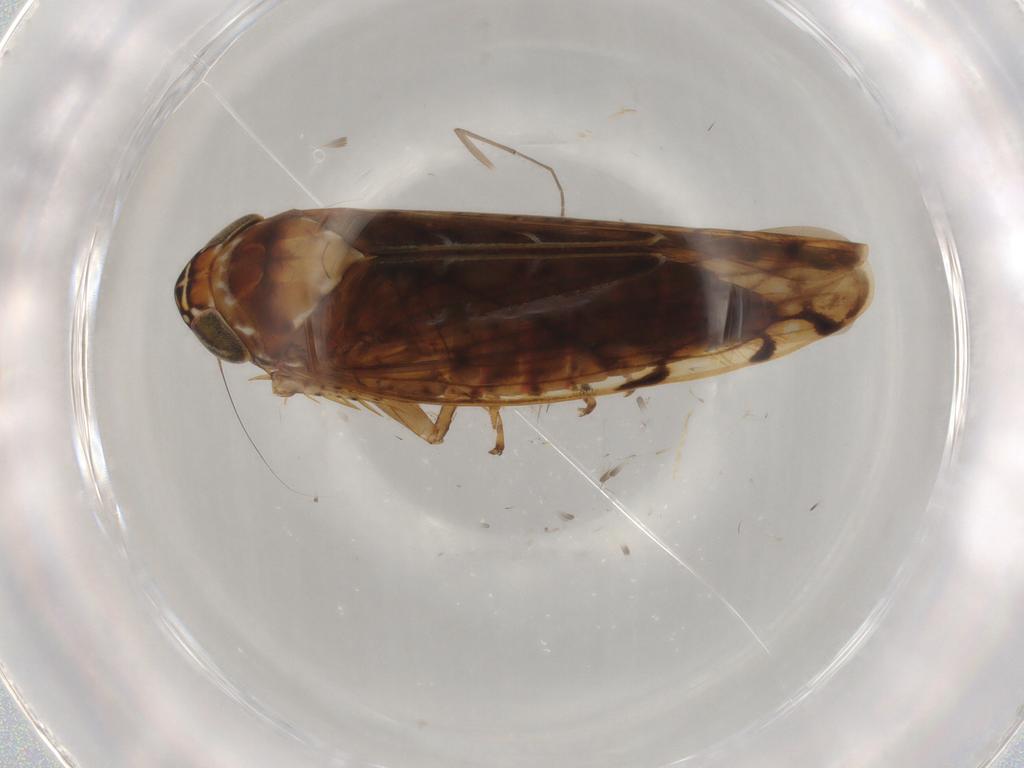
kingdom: Animalia
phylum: Arthropoda
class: Insecta
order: Hemiptera
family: Cicadellidae
